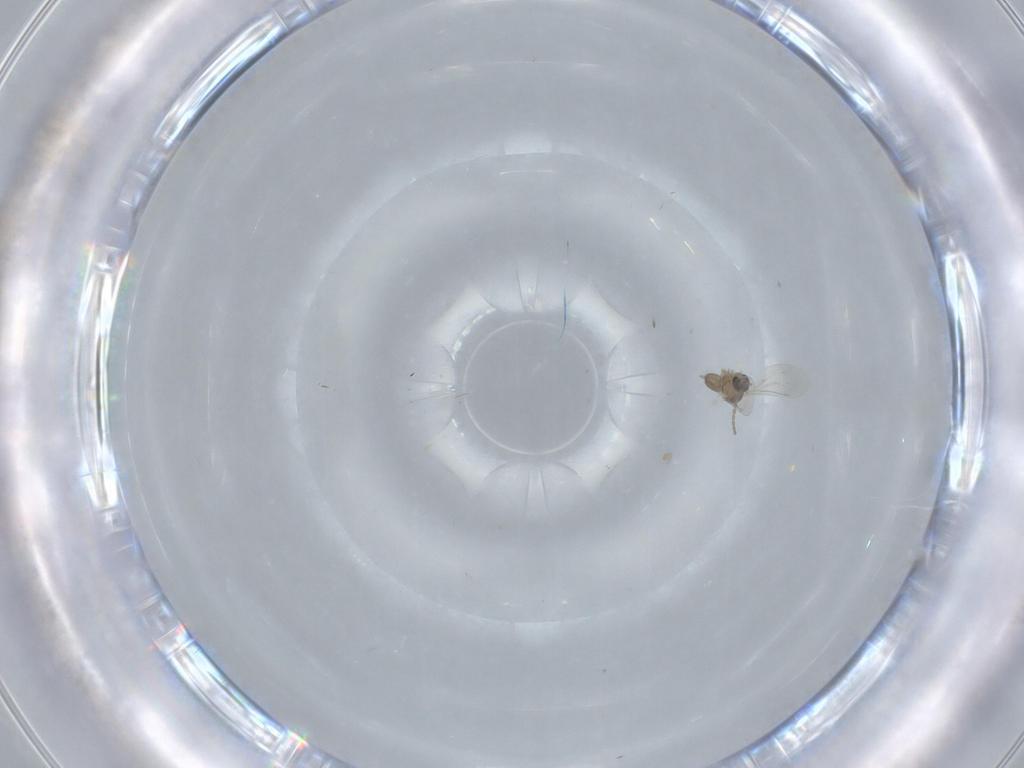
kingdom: Animalia
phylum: Arthropoda
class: Insecta
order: Diptera
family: Cecidomyiidae
